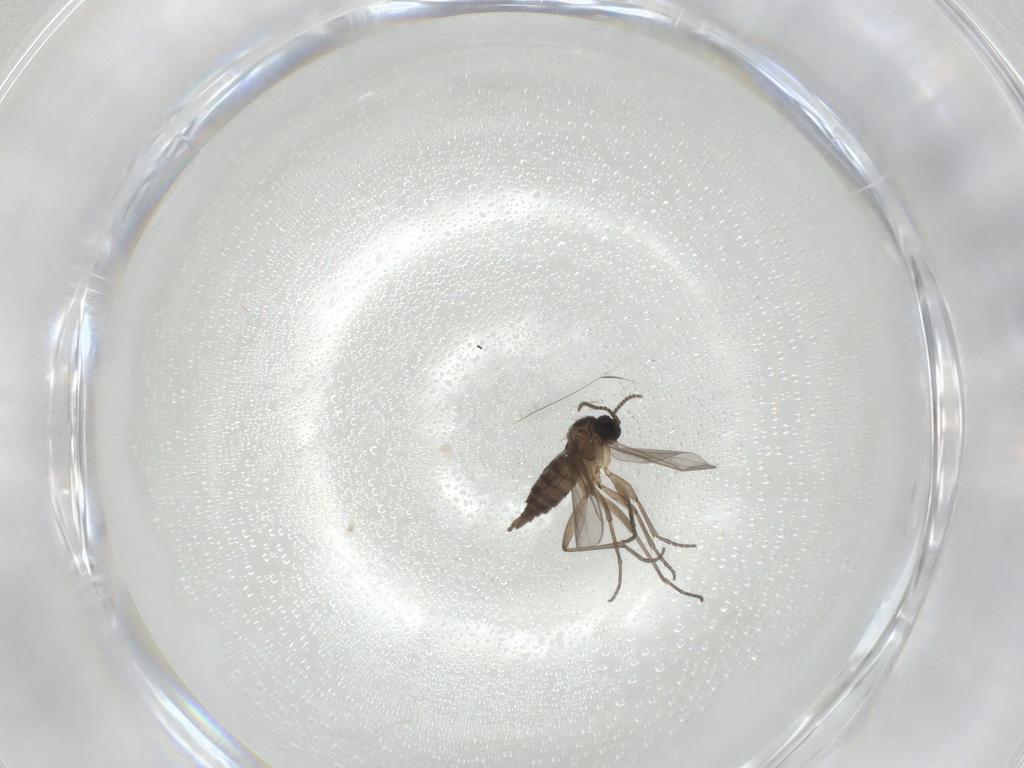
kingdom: Animalia
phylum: Arthropoda
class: Insecta
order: Diptera
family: Sciaridae
